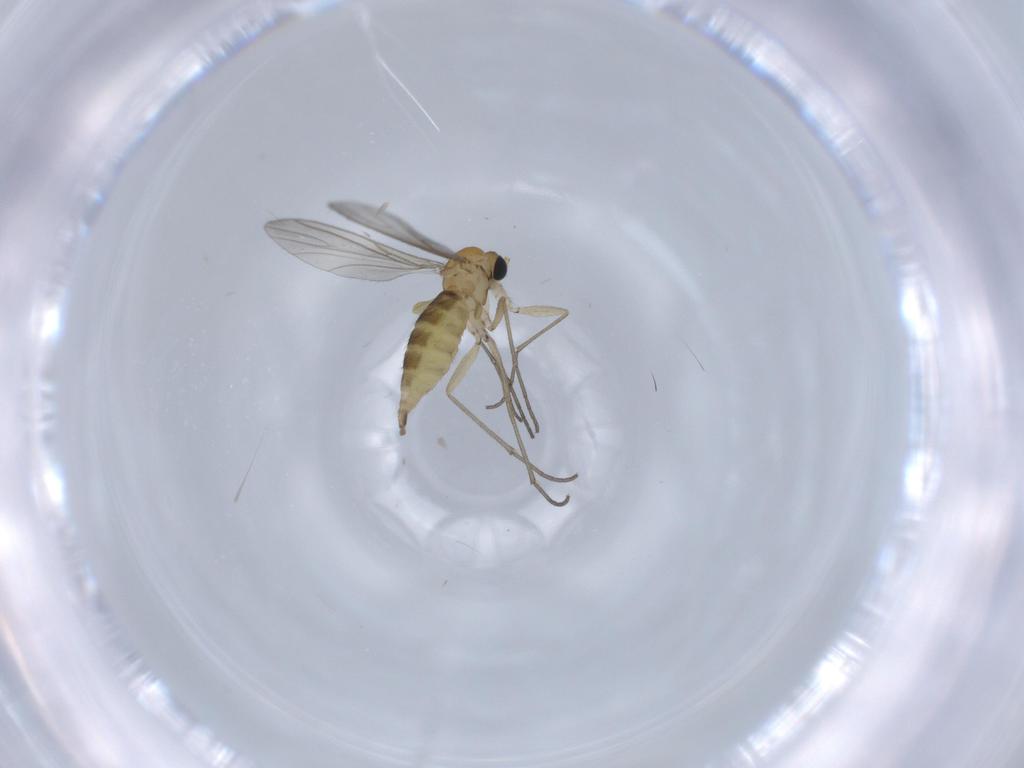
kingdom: Animalia
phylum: Arthropoda
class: Insecta
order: Diptera
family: Sciaridae
